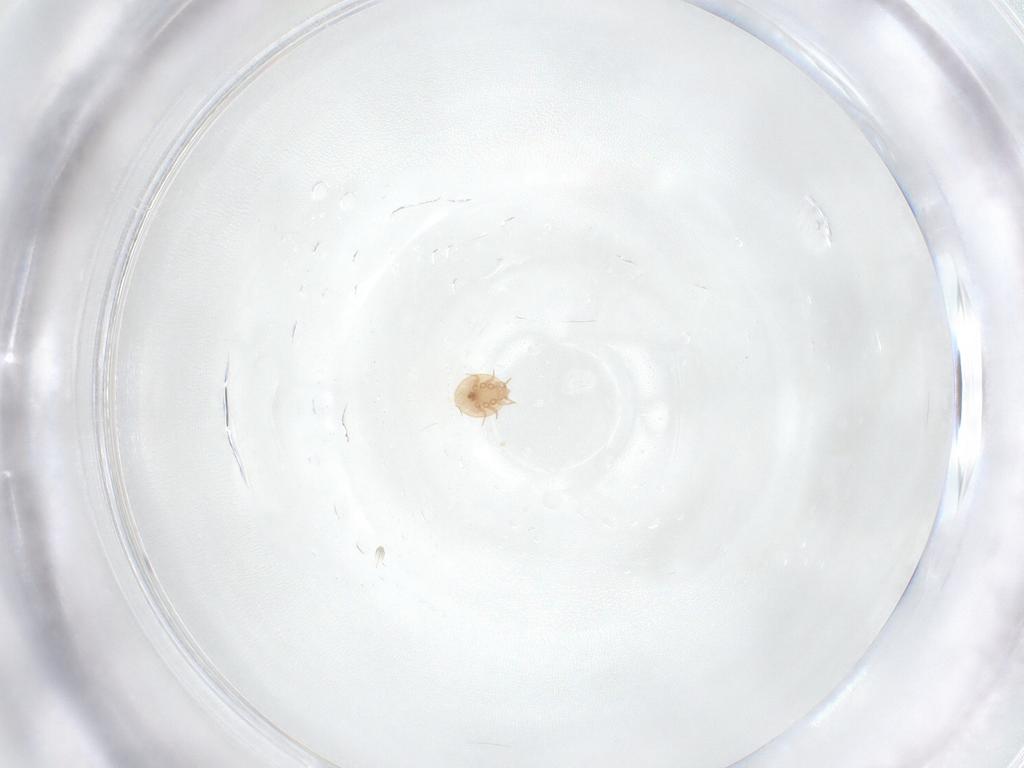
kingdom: Animalia
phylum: Arthropoda
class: Arachnida
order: Mesostigmata
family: Trematuridae
